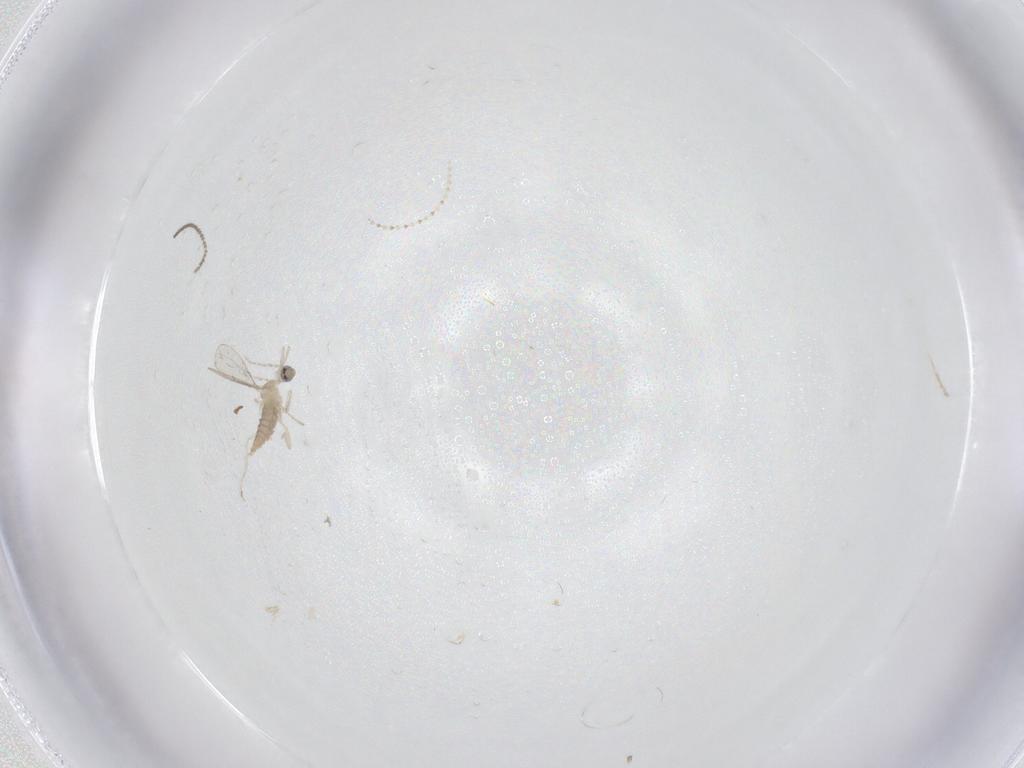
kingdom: Animalia
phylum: Arthropoda
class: Insecta
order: Diptera
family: Cecidomyiidae
